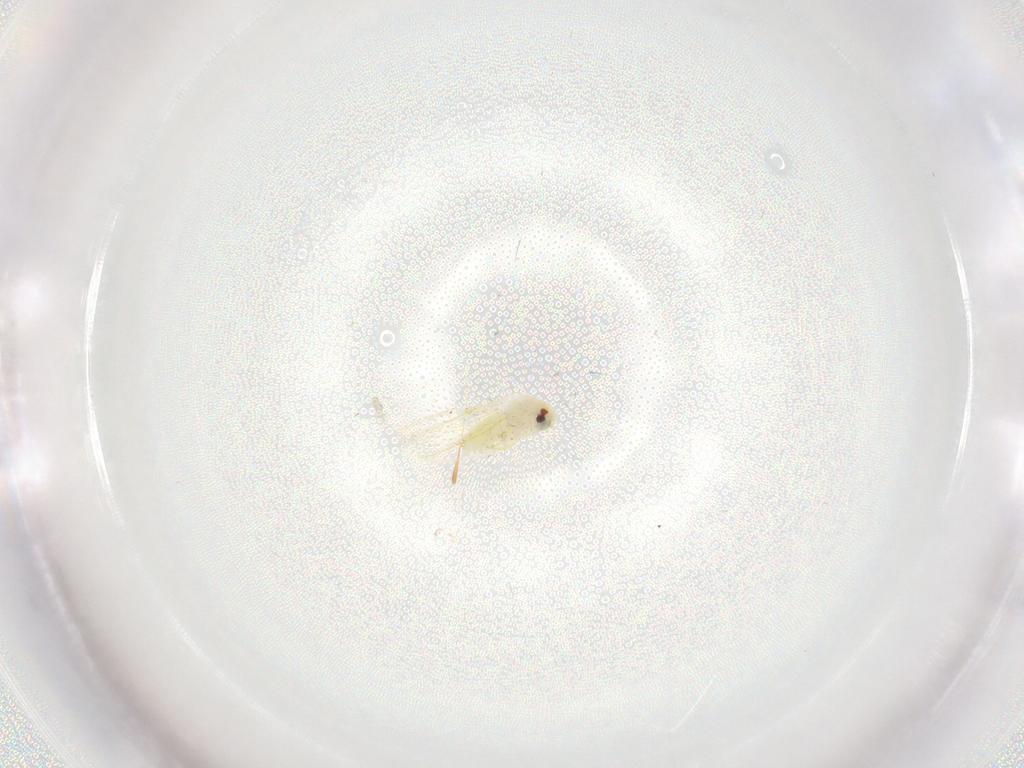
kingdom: Animalia
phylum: Arthropoda
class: Insecta
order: Hemiptera
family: Aleyrodidae
